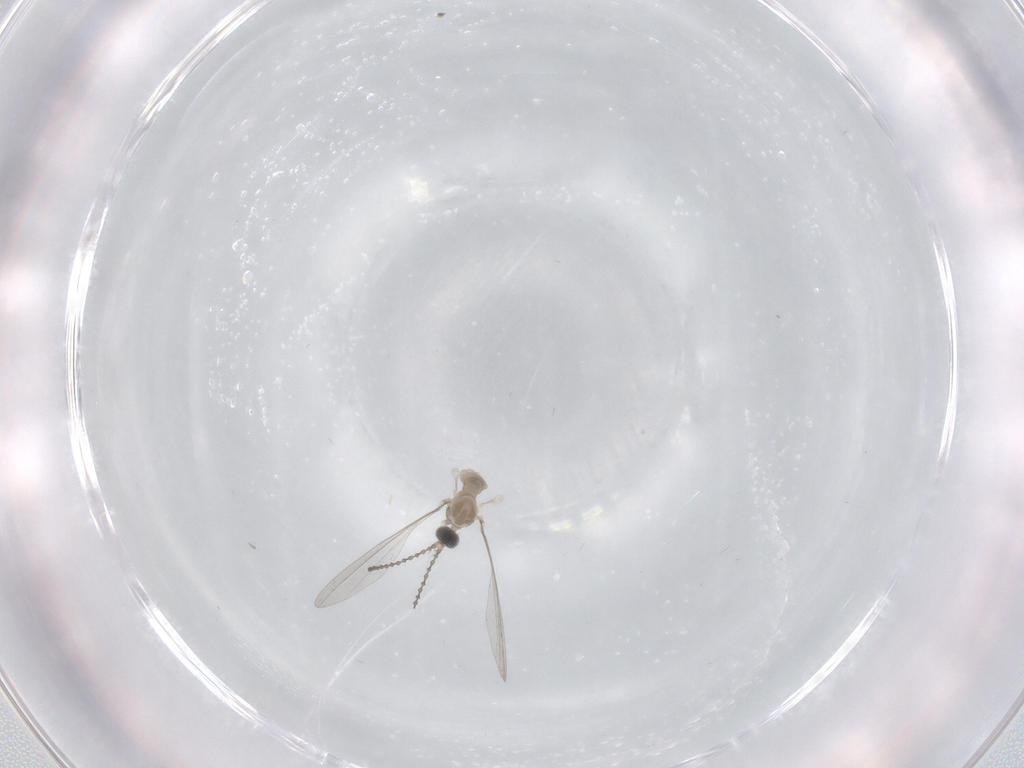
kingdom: Animalia
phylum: Arthropoda
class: Insecta
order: Diptera
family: Cecidomyiidae
